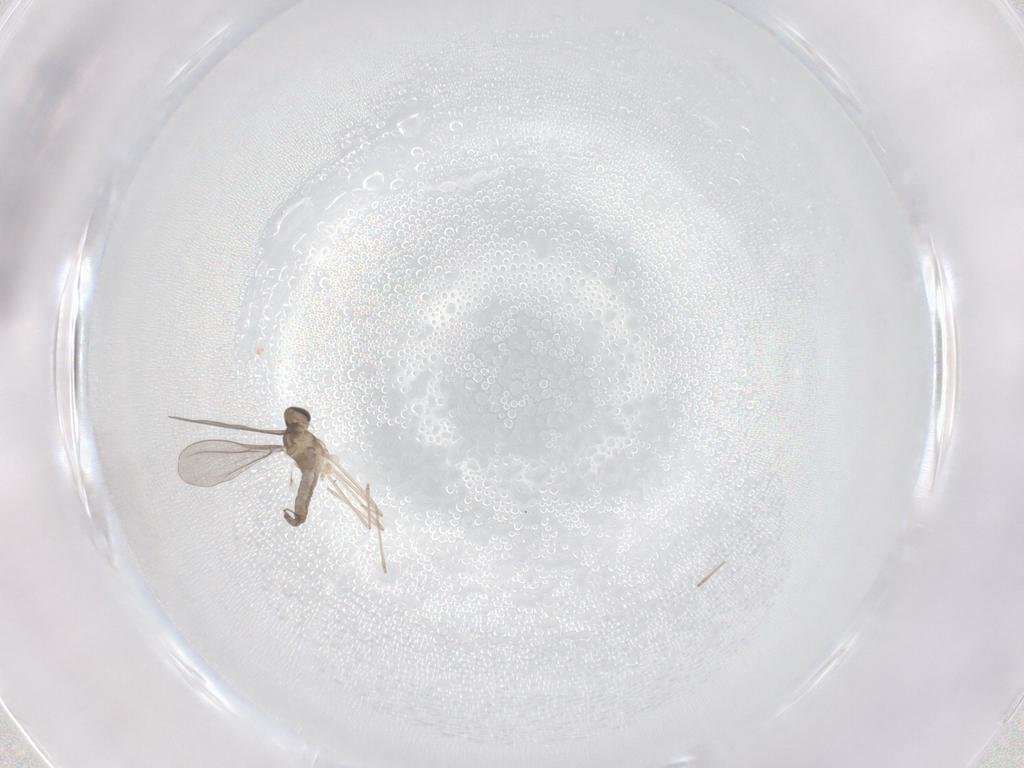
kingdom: Animalia
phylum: Arthropoda
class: Insecta
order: Diptera
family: Cecidomyiidae
